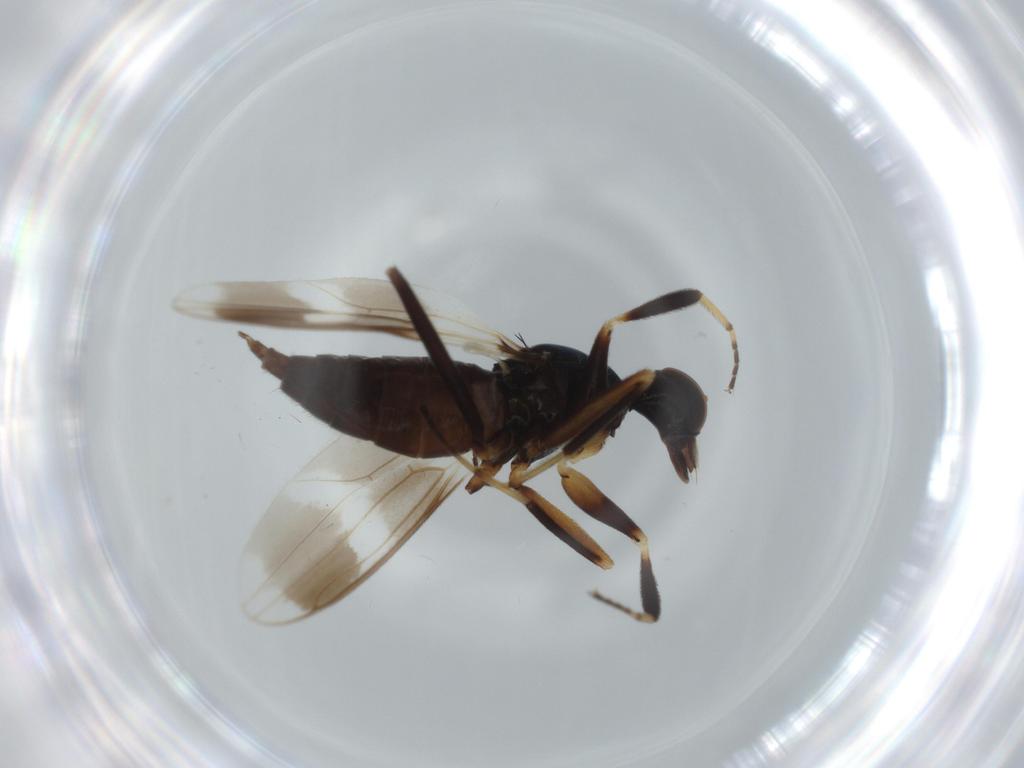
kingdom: Animalia
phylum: Arthropoda
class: Insecta
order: Diptera
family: Hybotidae
